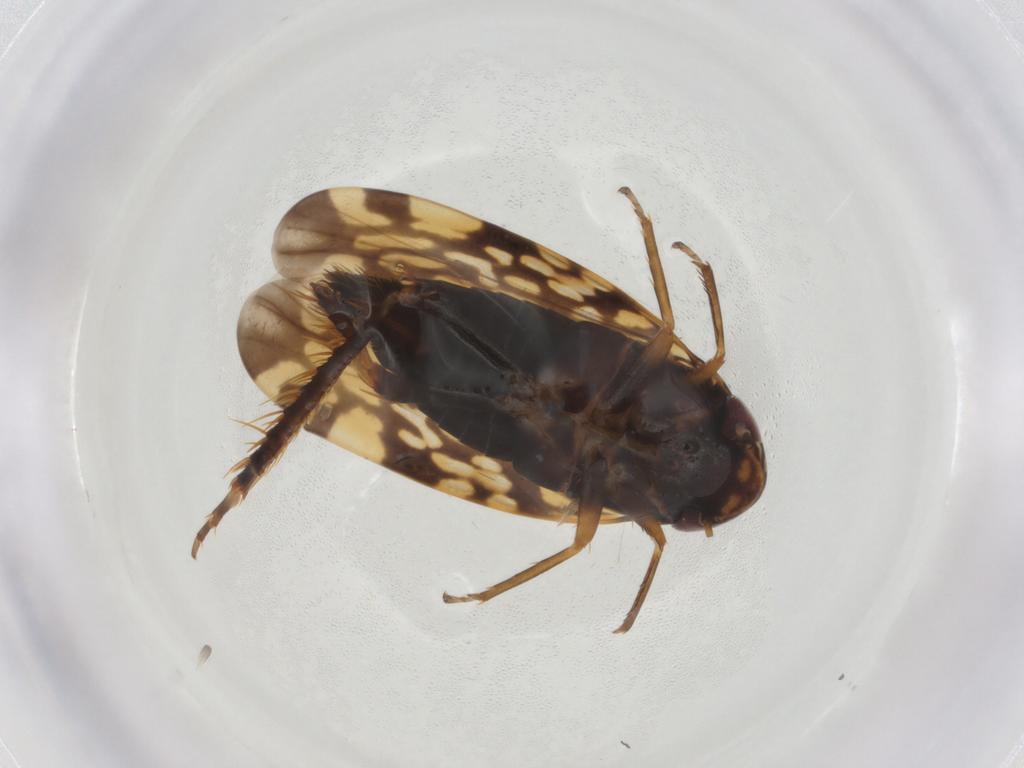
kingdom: Animalia
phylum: Arthropoda
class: Insecta
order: Hemiptera
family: Cicadellidae
